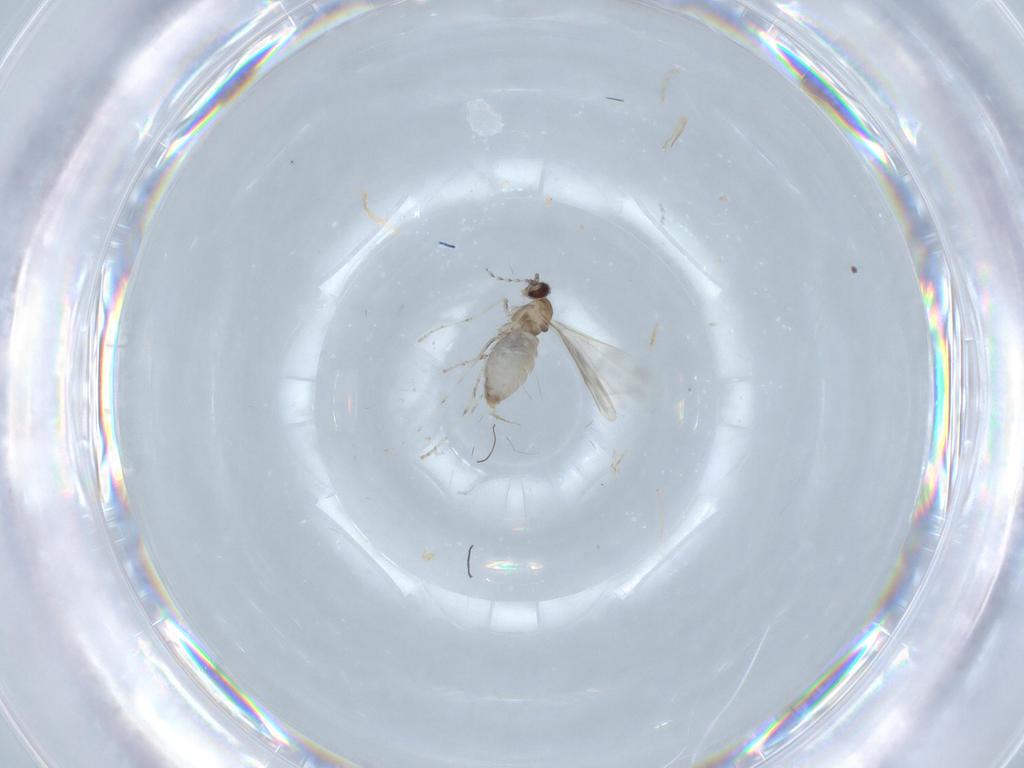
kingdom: Animalia
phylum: Arthropoda
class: Insecta
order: Diptera
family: Cecidomyiidae
